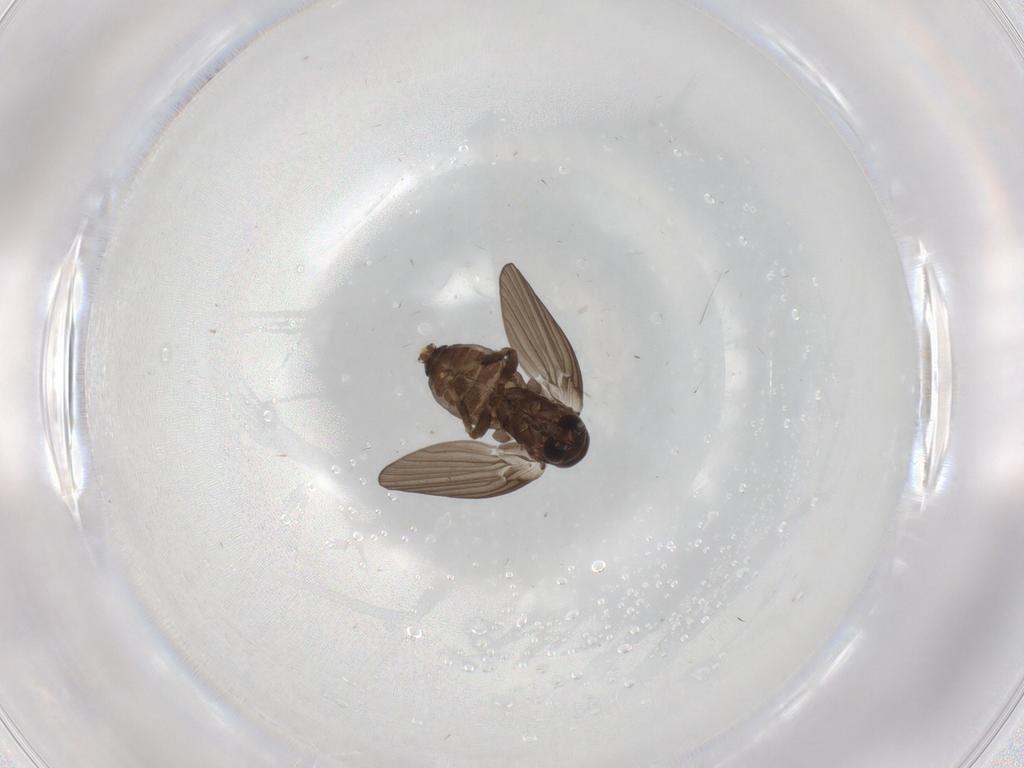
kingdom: Animalia
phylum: Arthropoda
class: Insecta
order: Diptera
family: Psychodidae
